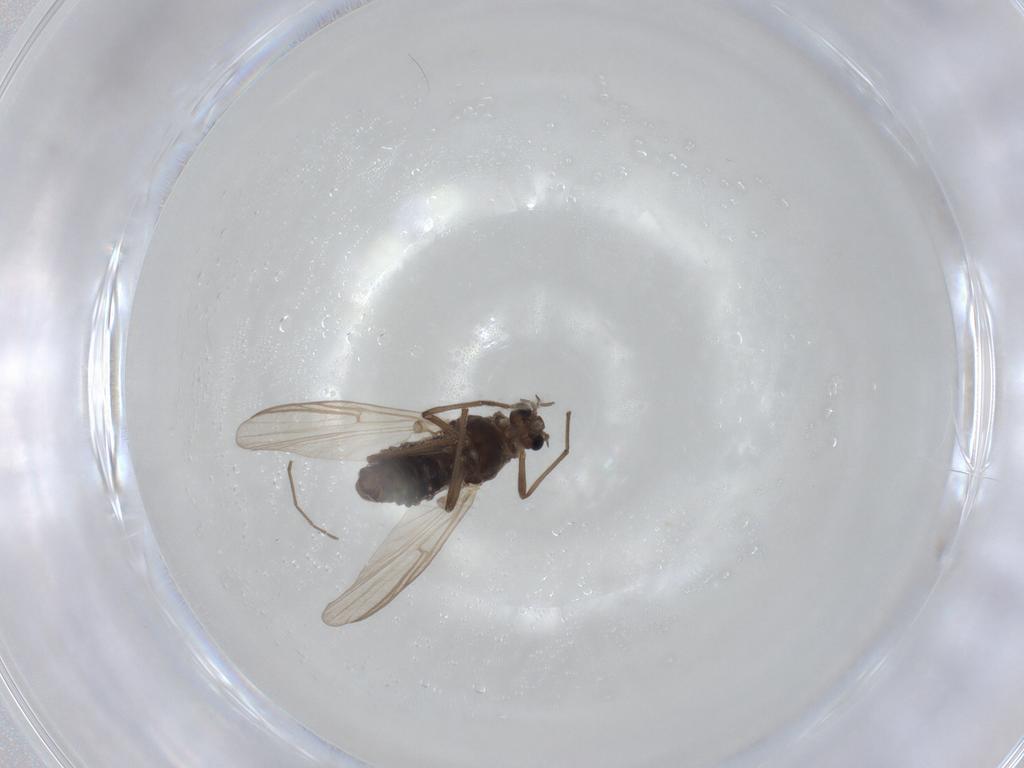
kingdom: Animalia
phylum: Arthropoda
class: Insecta
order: Diptera
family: Chironomidae
